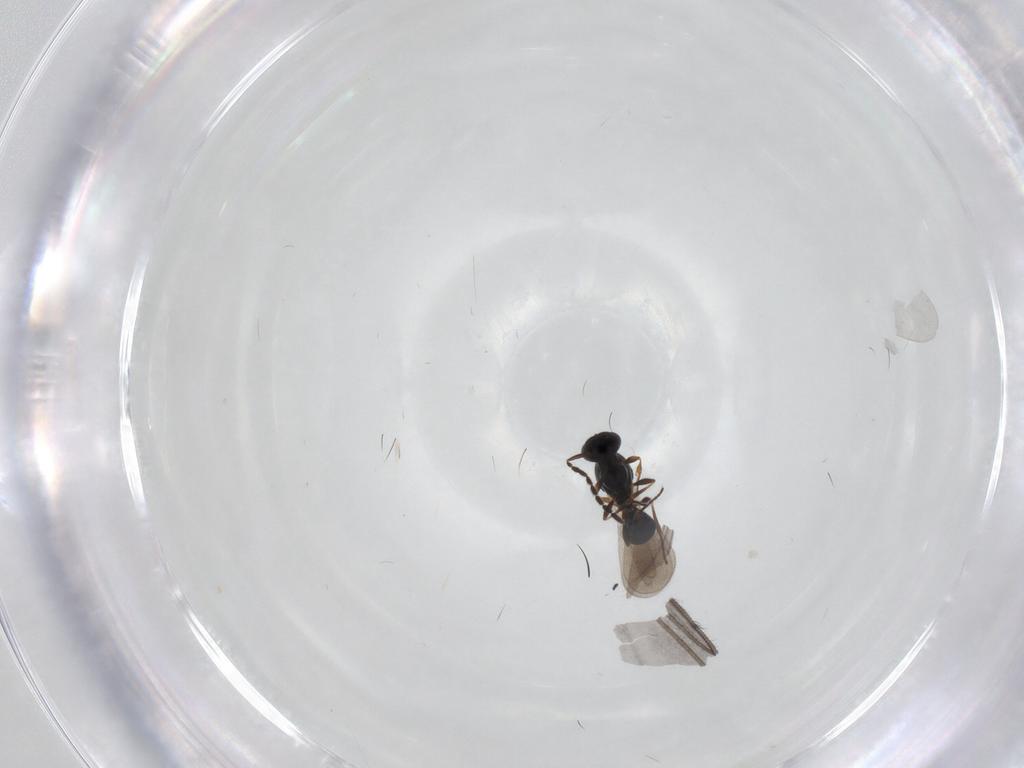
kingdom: Animalia
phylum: Arthropoda
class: Insecta
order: Hymenoptera
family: Platygastridae
